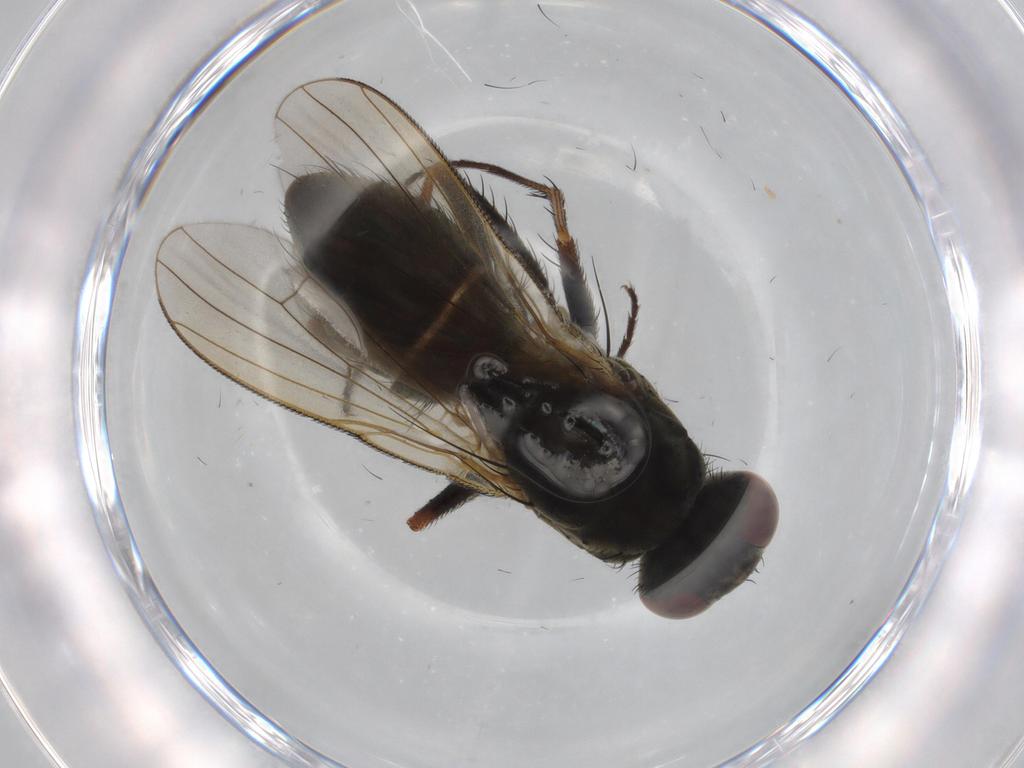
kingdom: Animalia
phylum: Arthropoda
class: Insecta
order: Diptera
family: Muscidae
